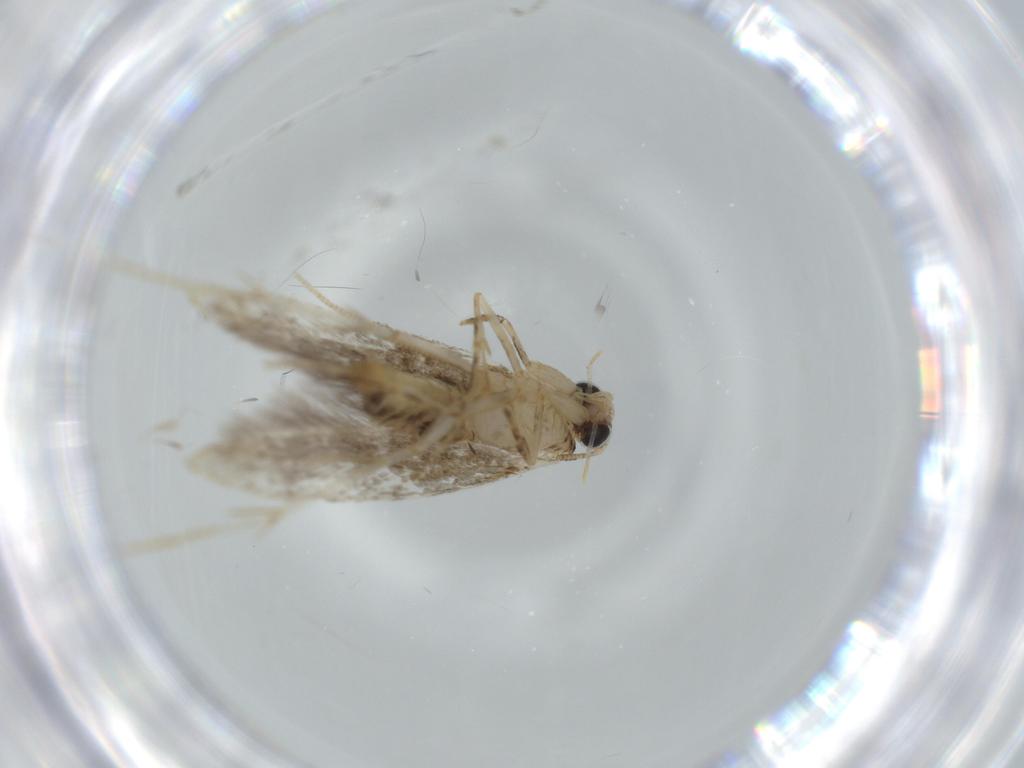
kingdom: Animalia
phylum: Arthropoda
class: Insecta
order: Lepidoptera
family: Tineidae
